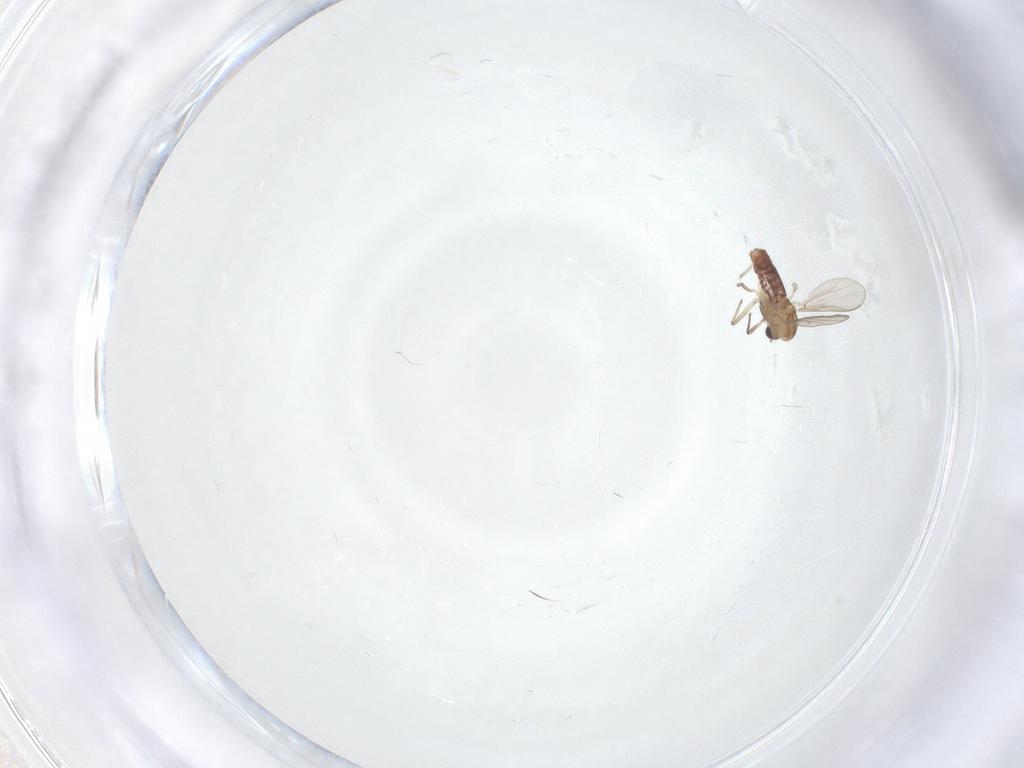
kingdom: Animalia
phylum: Arthropoda
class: Insecta
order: Diptera
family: Chironomidae
